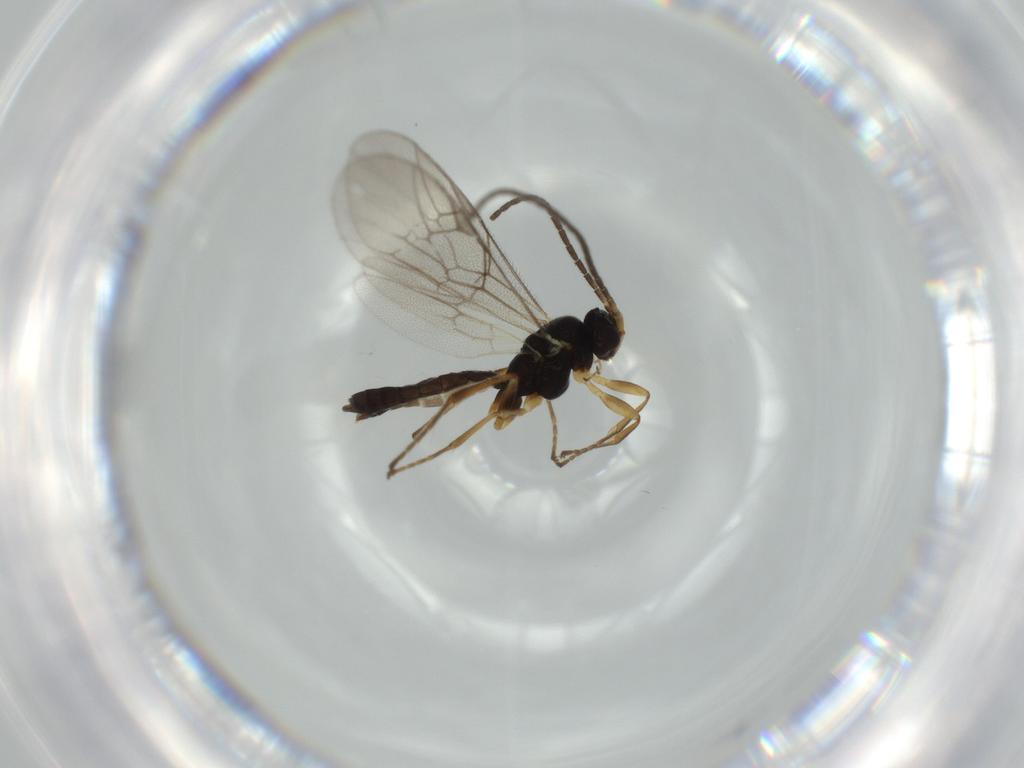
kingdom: Animalia
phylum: Arthropoda
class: Insecta
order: Hymenoptera
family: Ichneumonidae
